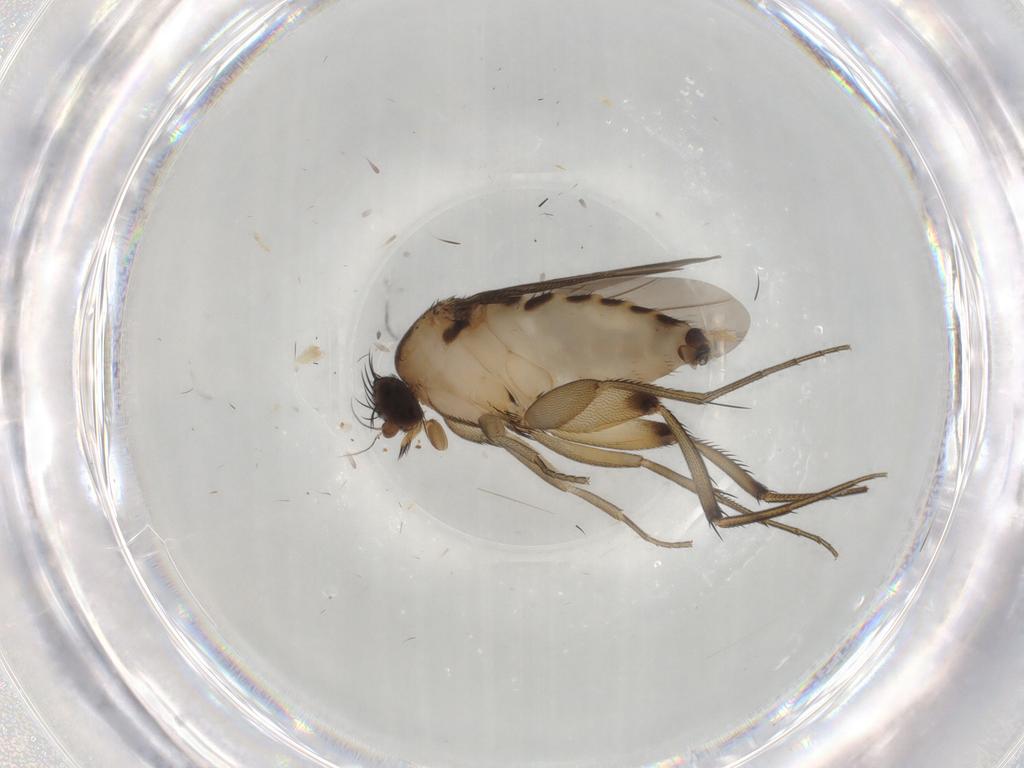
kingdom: Animalia
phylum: Arthropoda
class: Insecta
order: Diptera
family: Phoridae
